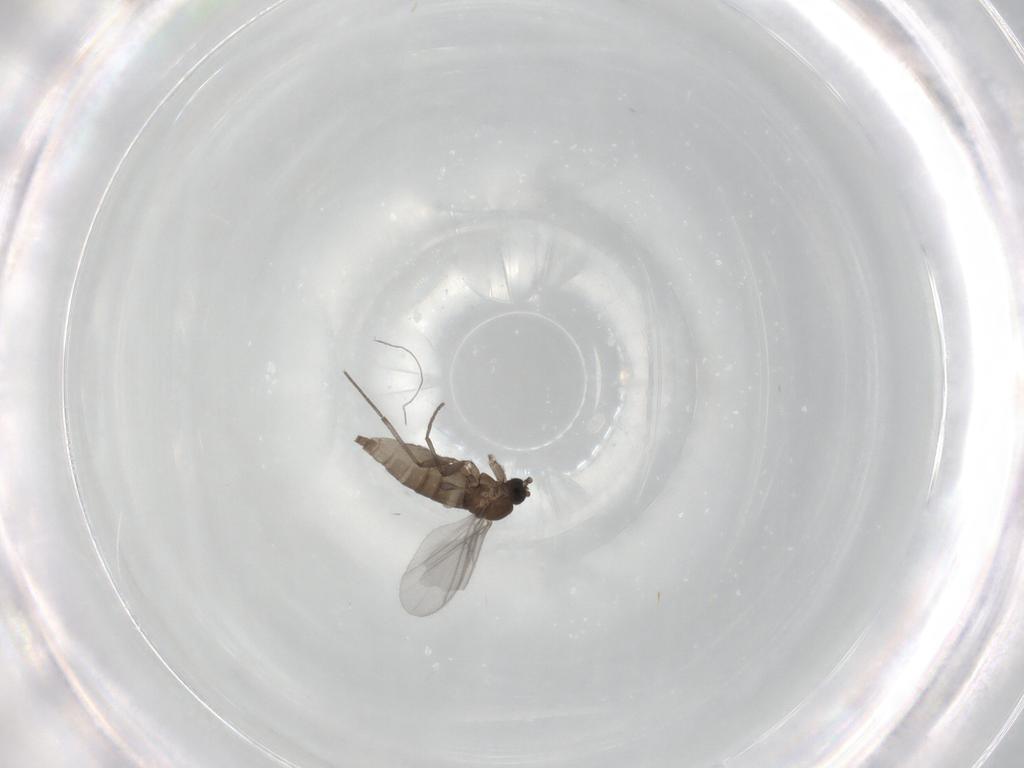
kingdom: Animalia
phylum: Arthropoda
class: Insecta
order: Diptera
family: Sciaridae
